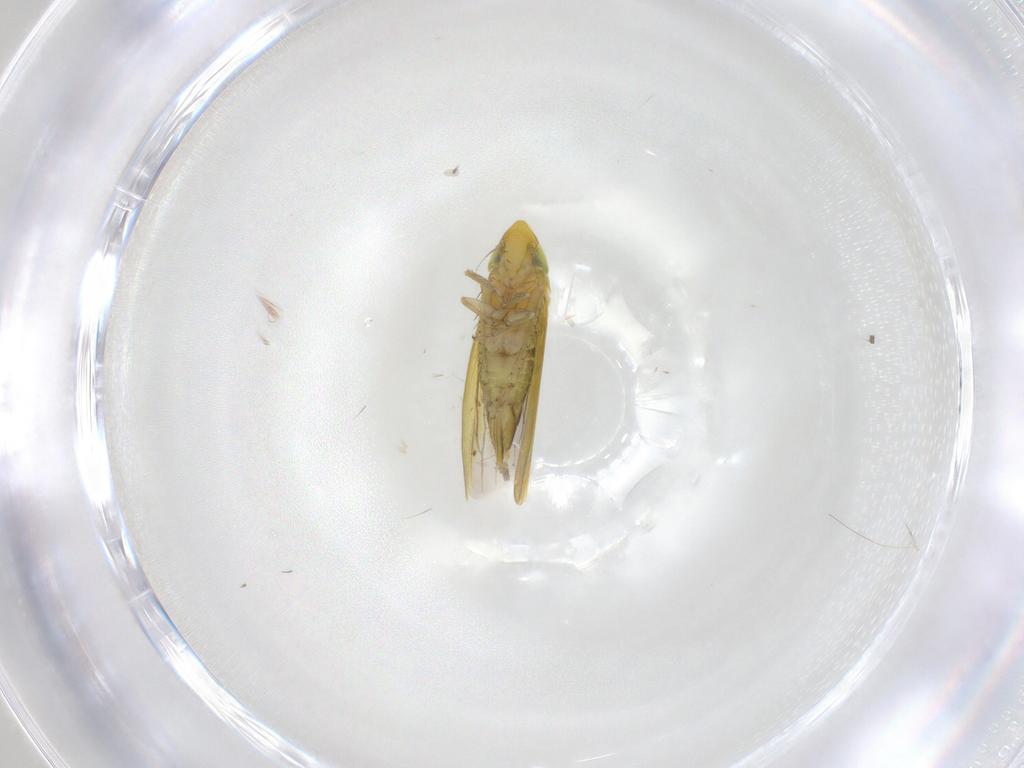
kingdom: Animalia
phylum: Arthropoda
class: Insecta
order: Hemiptera
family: Cicadellidae
